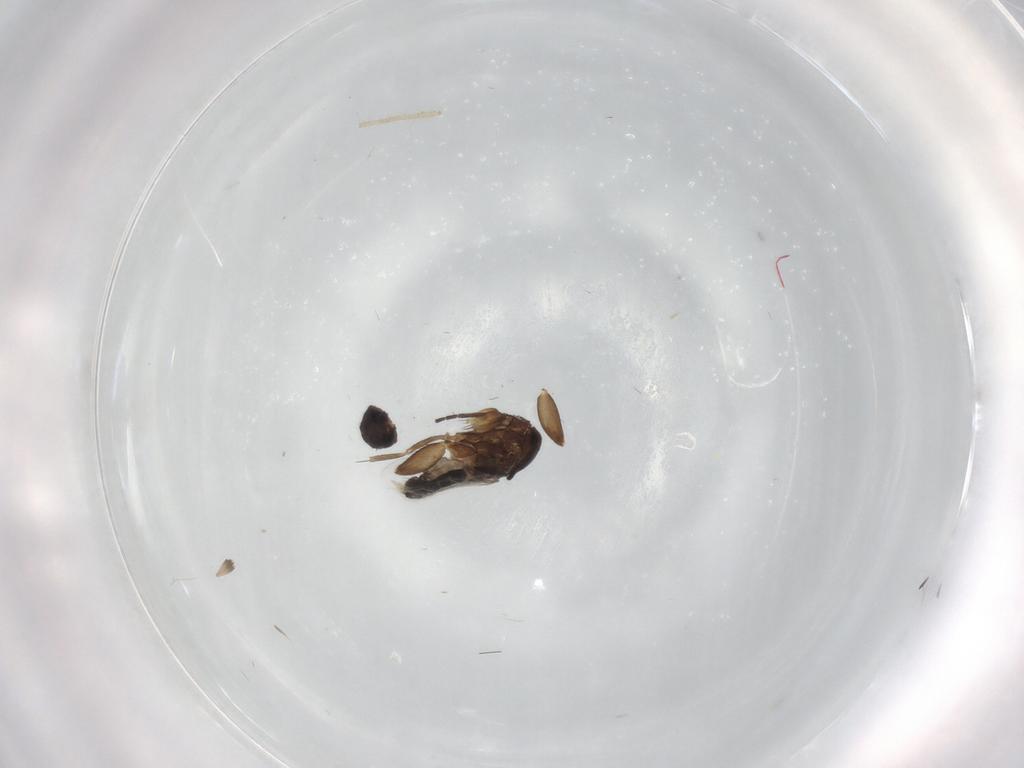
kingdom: Animalia
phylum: Arthropoda
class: Insecta
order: Diptera
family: Phoridae
